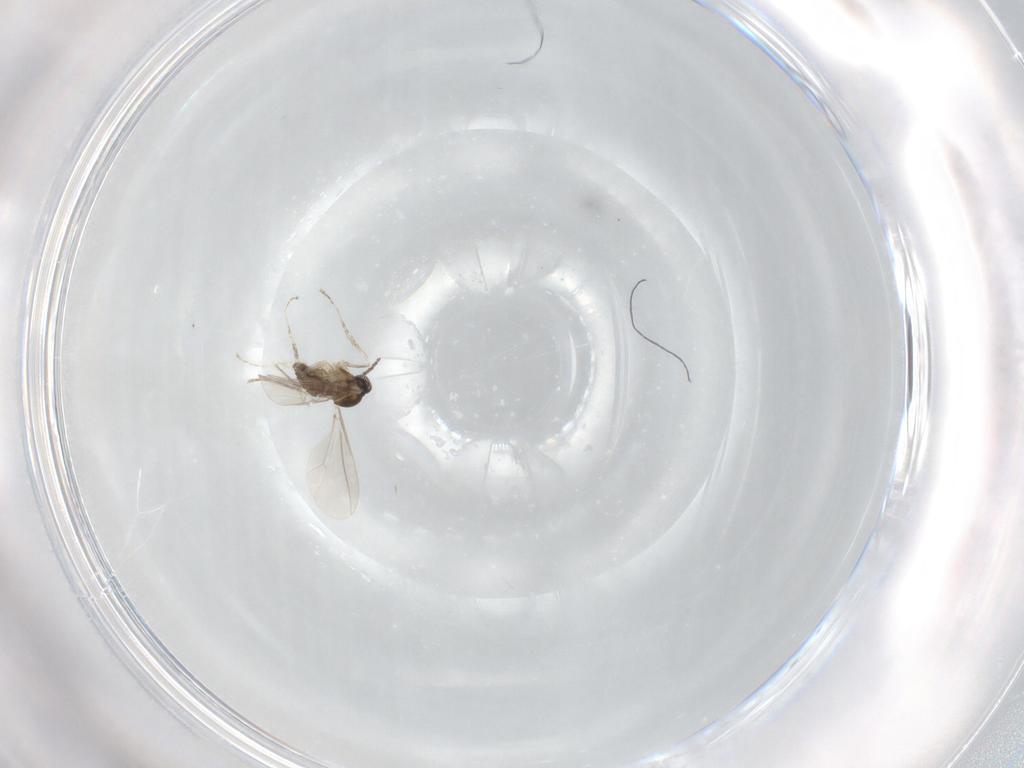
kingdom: Animalia
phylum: Arthropoda
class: Insecta
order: Diptera
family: Cecidomyiidae
